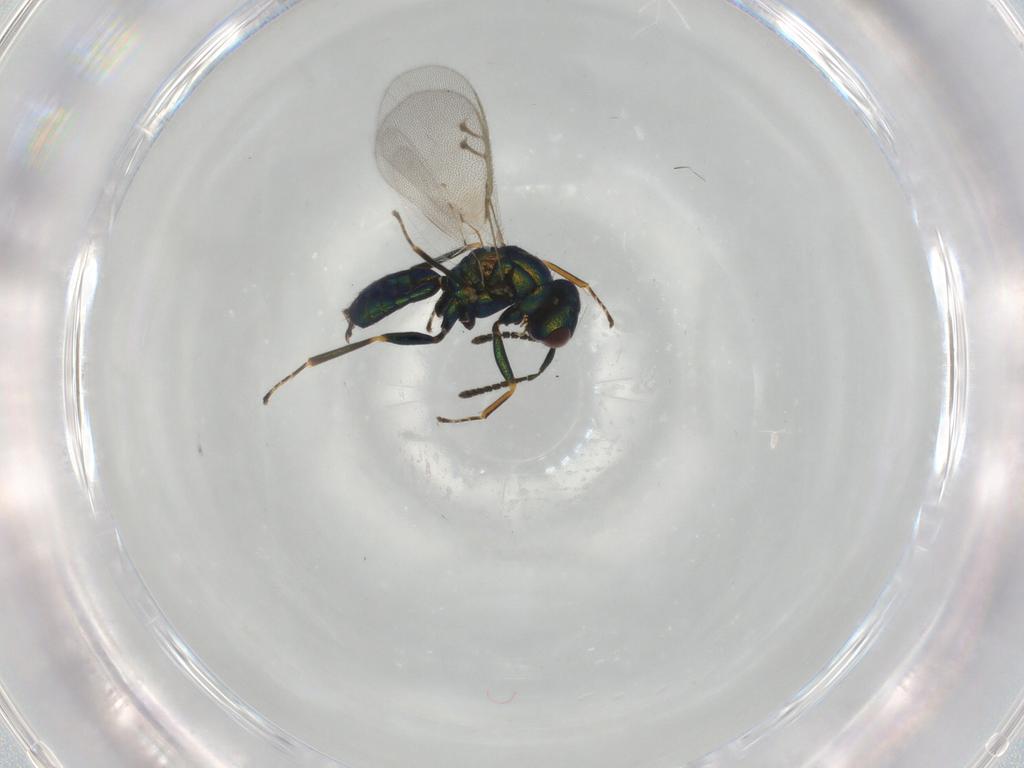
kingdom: Animalia
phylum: Arthropoda
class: Insecta
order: Hymenoptera
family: Pteromalidae
